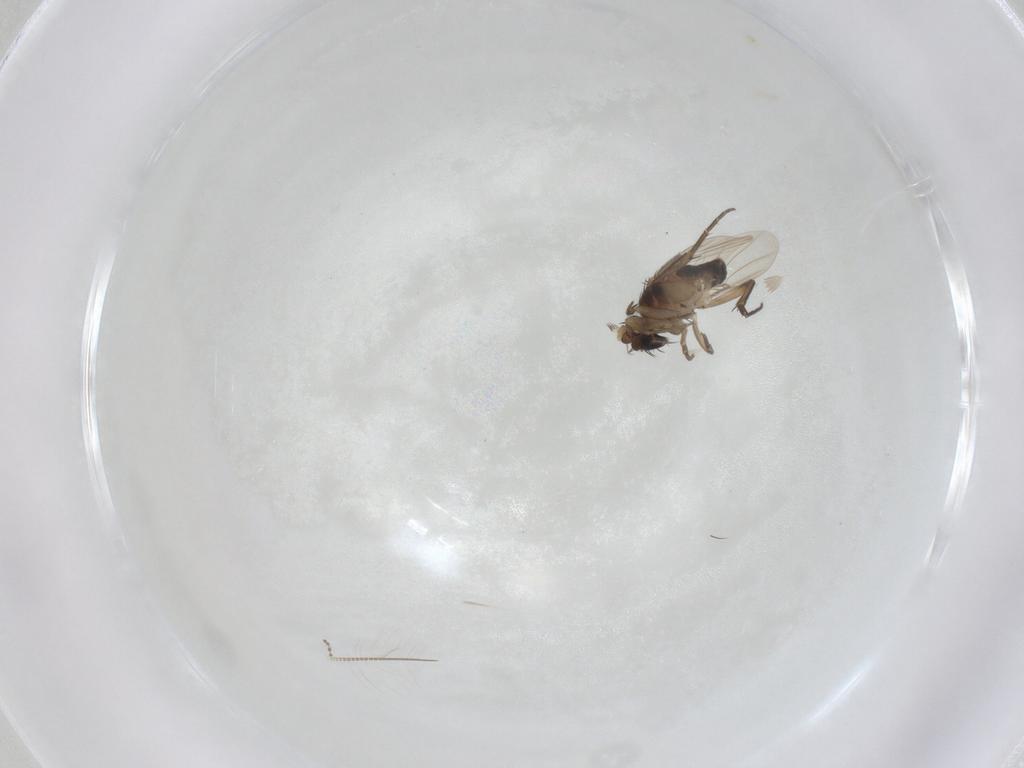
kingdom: Animalia
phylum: Arthropoda
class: Insecta
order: Diptera
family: Phoridae
